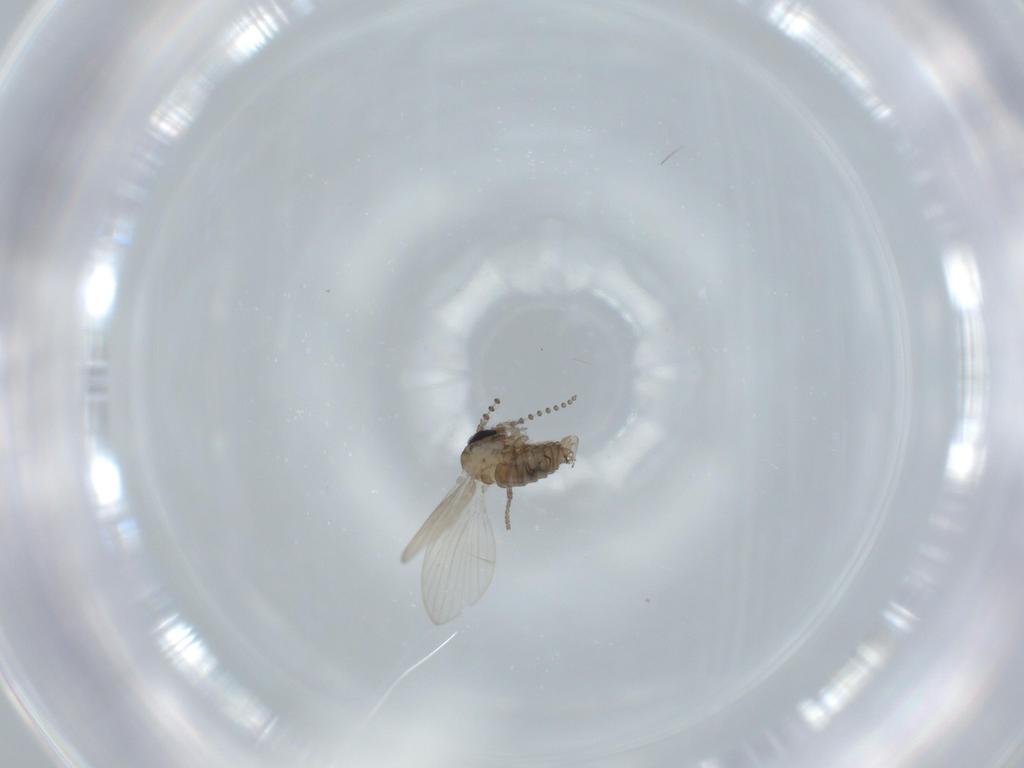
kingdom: Animalia
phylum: Arthropoda
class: Insecta
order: Diptera
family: Psychodidae
